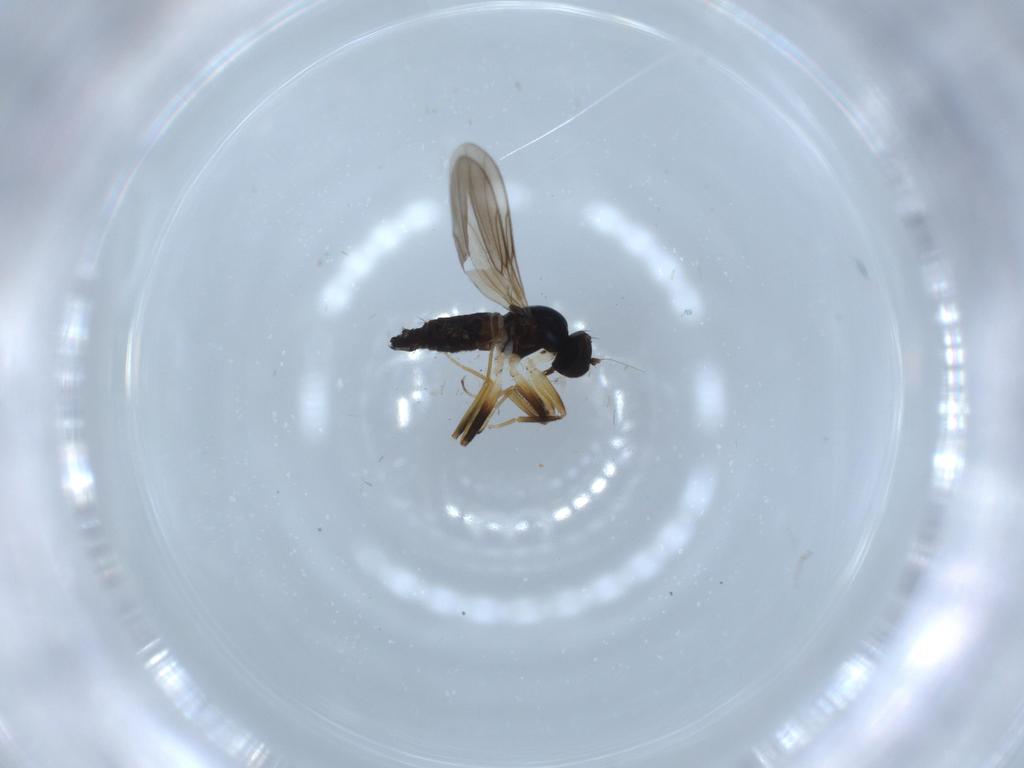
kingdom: Animalia
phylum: Arthropoda
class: Insecta
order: Diptera
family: Hybotidae
